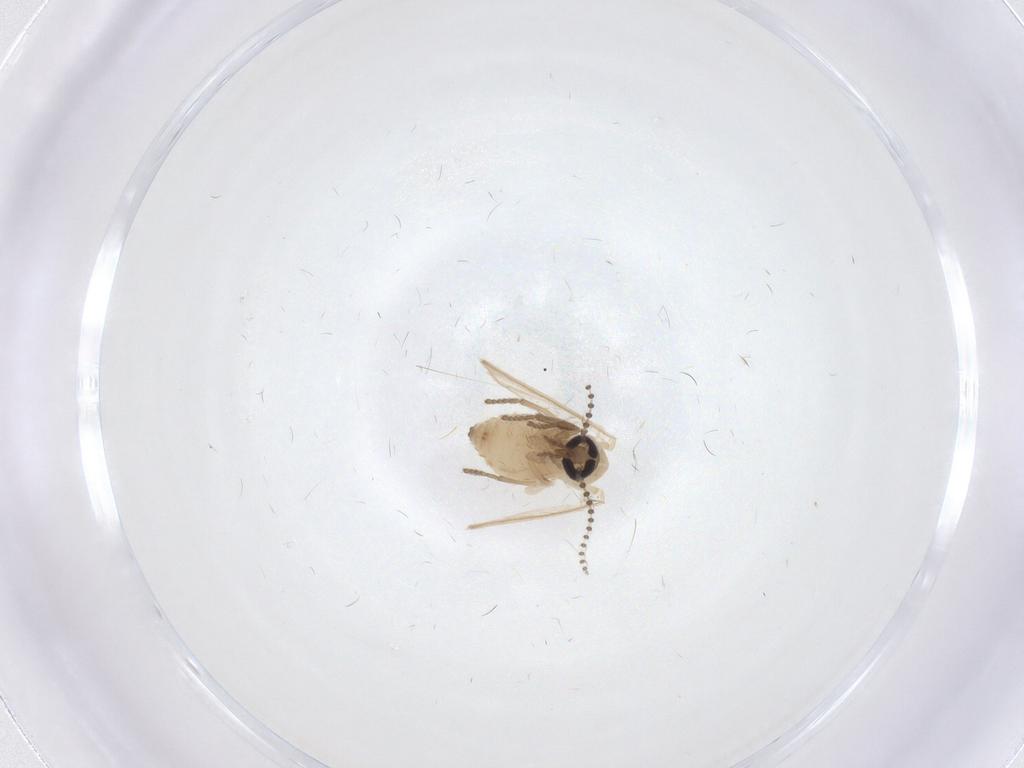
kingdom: Animalia
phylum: Arthropoda
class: Insecta
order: Diptera
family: Psychodidae
